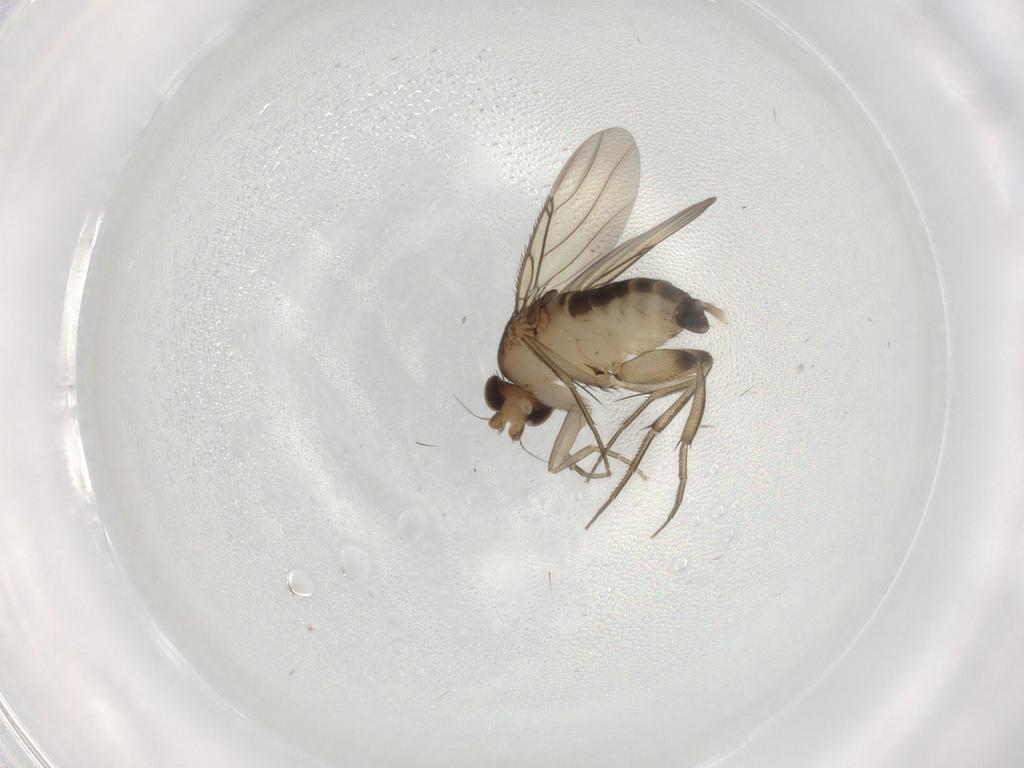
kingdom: Animalia
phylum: Arthropoda
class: Insecta
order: Diptera
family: Phoridae
